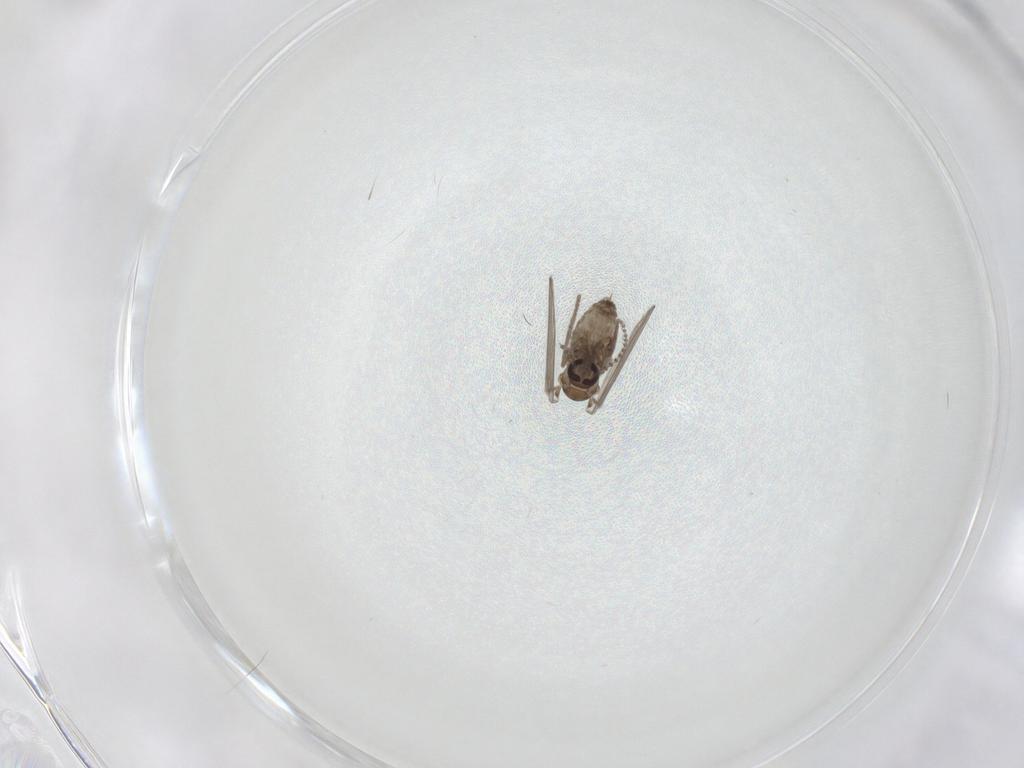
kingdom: Animalia
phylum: Arthropoda
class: Insecta
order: Diptera
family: Psychodidae
